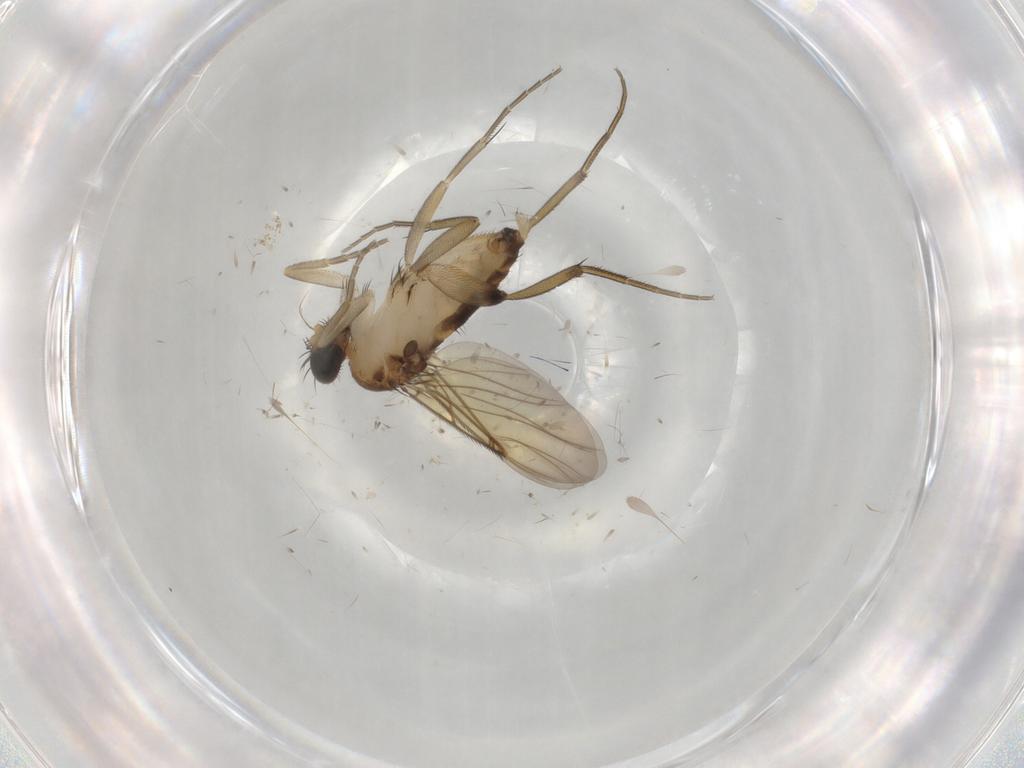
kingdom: Animalia
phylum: Arthropoda
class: Insecta
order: Diptera
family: Phoridae
